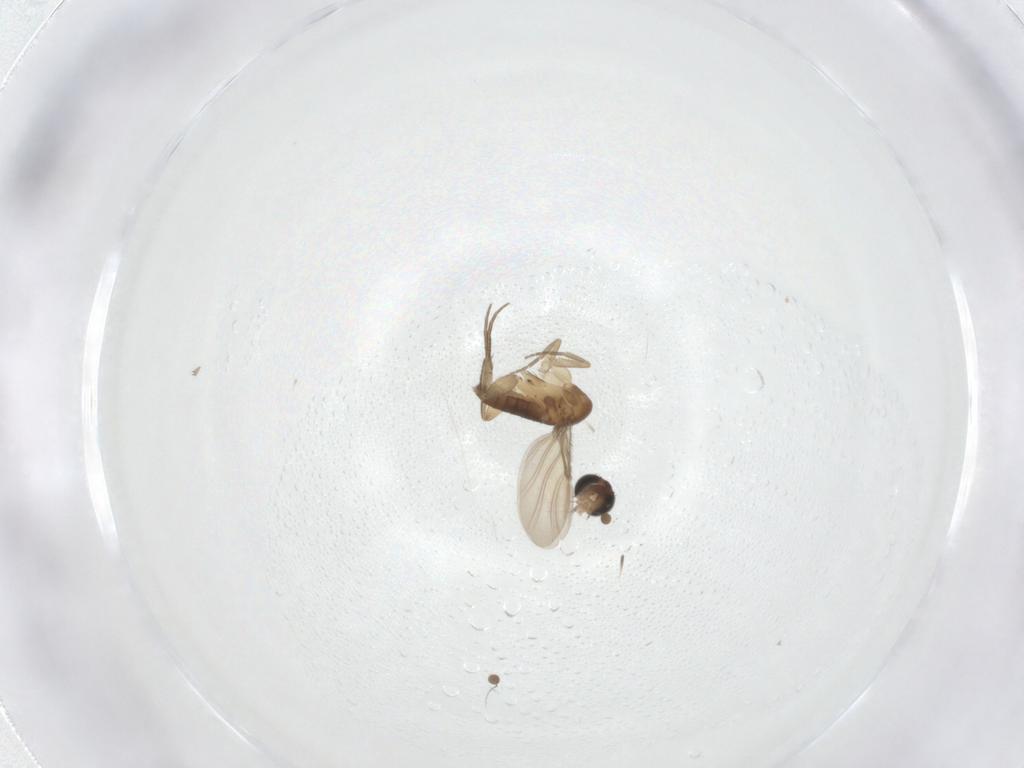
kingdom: Animalia
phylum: Arthropoda
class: Insecta
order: Diptera
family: Phoridae
